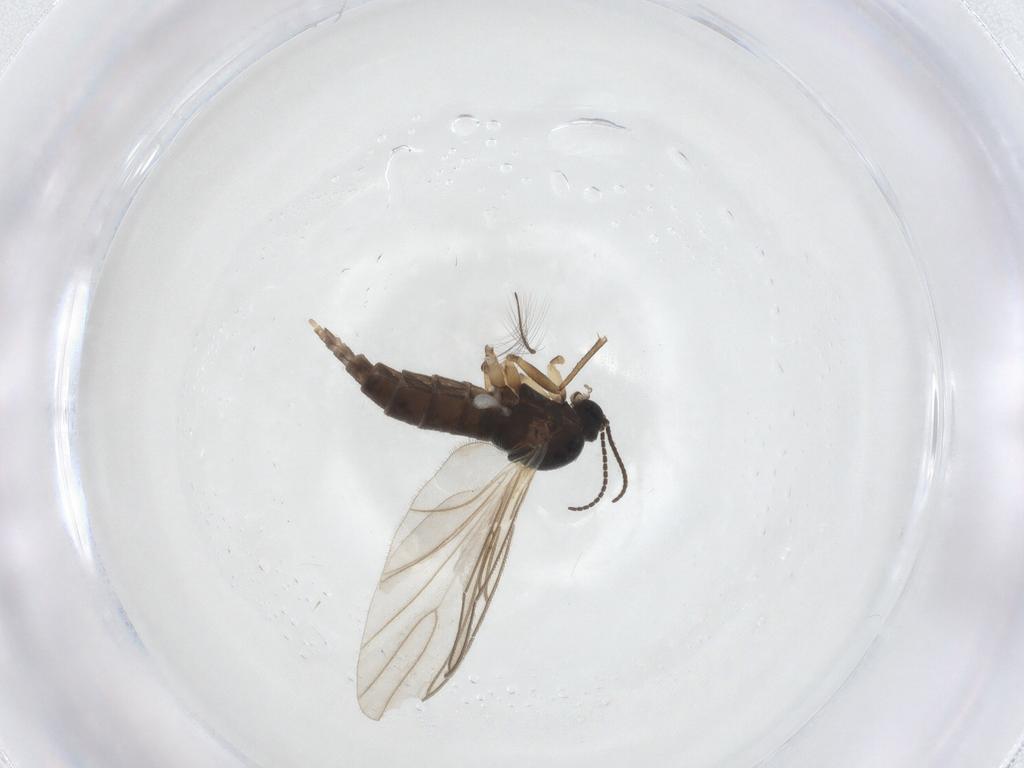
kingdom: Animalia
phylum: Arthropoda
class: Insecta
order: Diptera
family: Sciaridae
